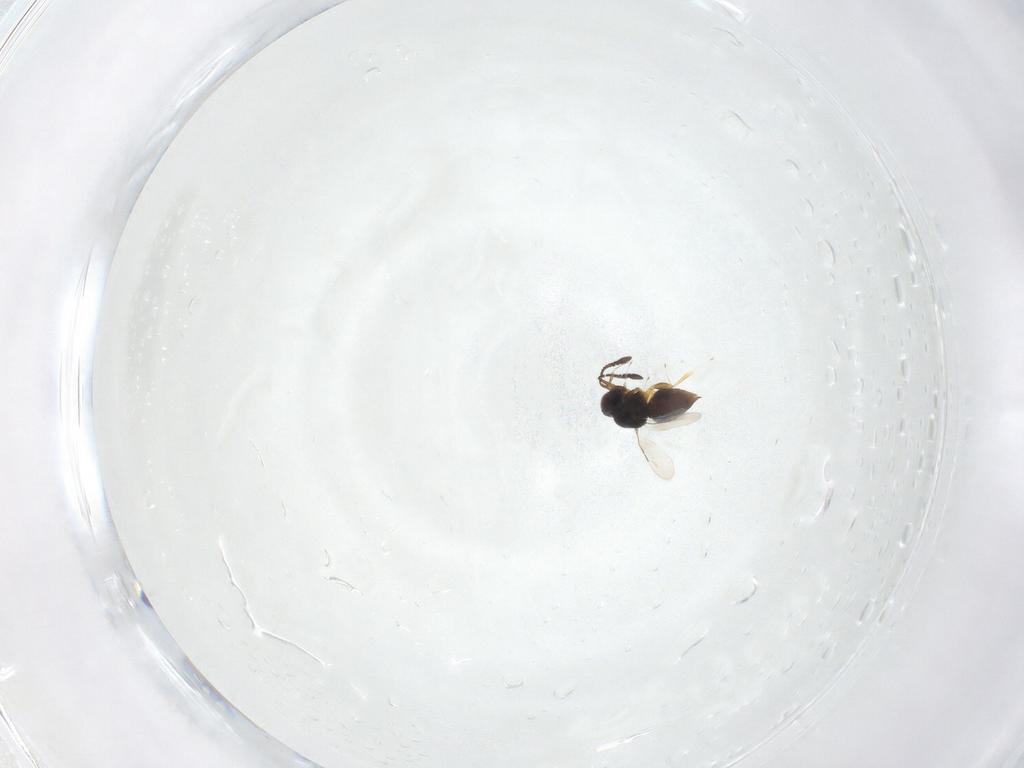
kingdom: Animalia
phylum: Arthropoda
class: Insecta
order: Hymenoptera
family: Ceraphronidae
